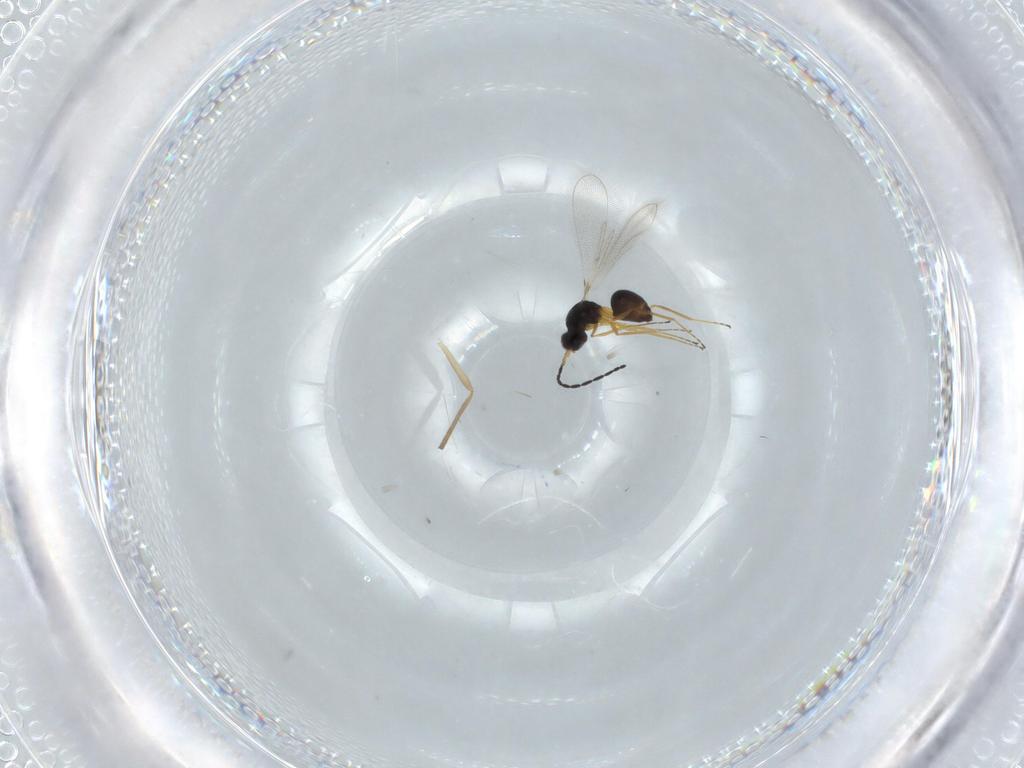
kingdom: Animalia
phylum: Arthropoda
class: Insecta
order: Hymenoptera
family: Mymaridae
